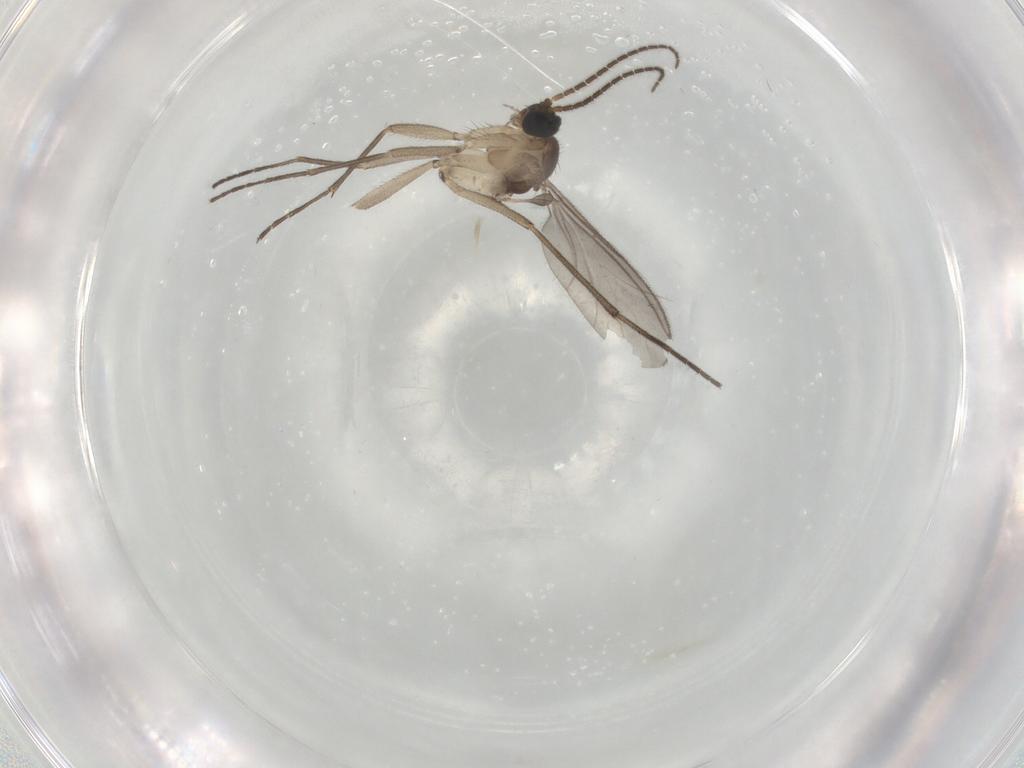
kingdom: Animalia
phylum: Arthropoda
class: Insecta
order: Diptera
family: Sciaridae
